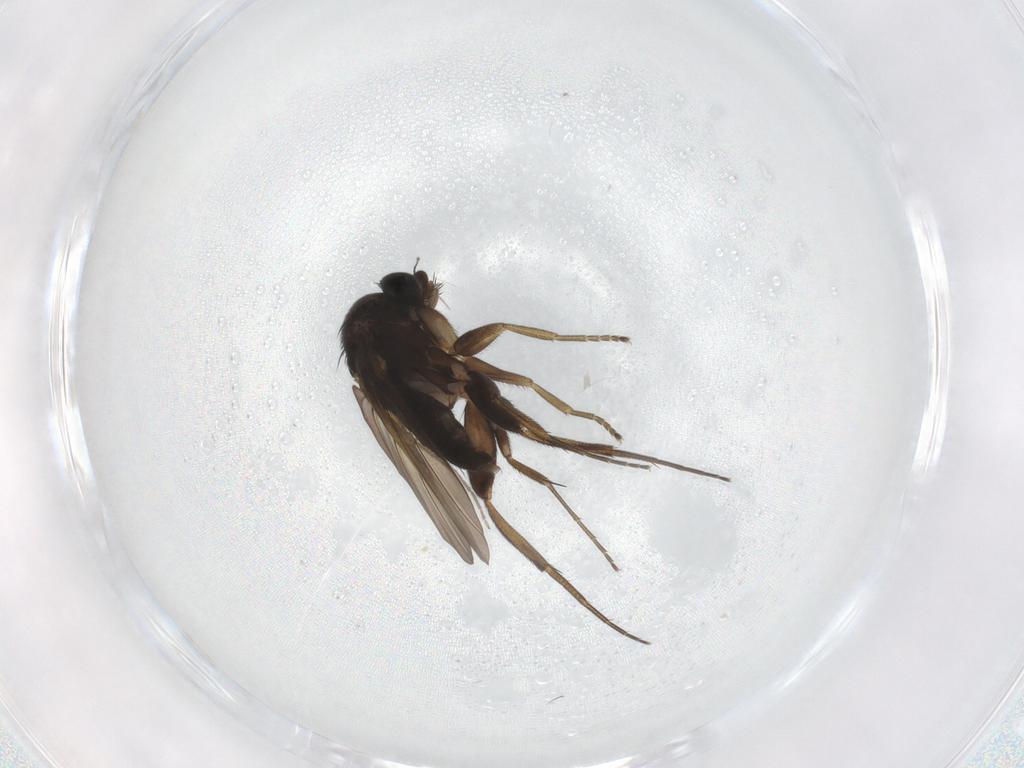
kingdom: Animalia
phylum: Arthropoda
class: Insecta
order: Diptera
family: Phoridae
